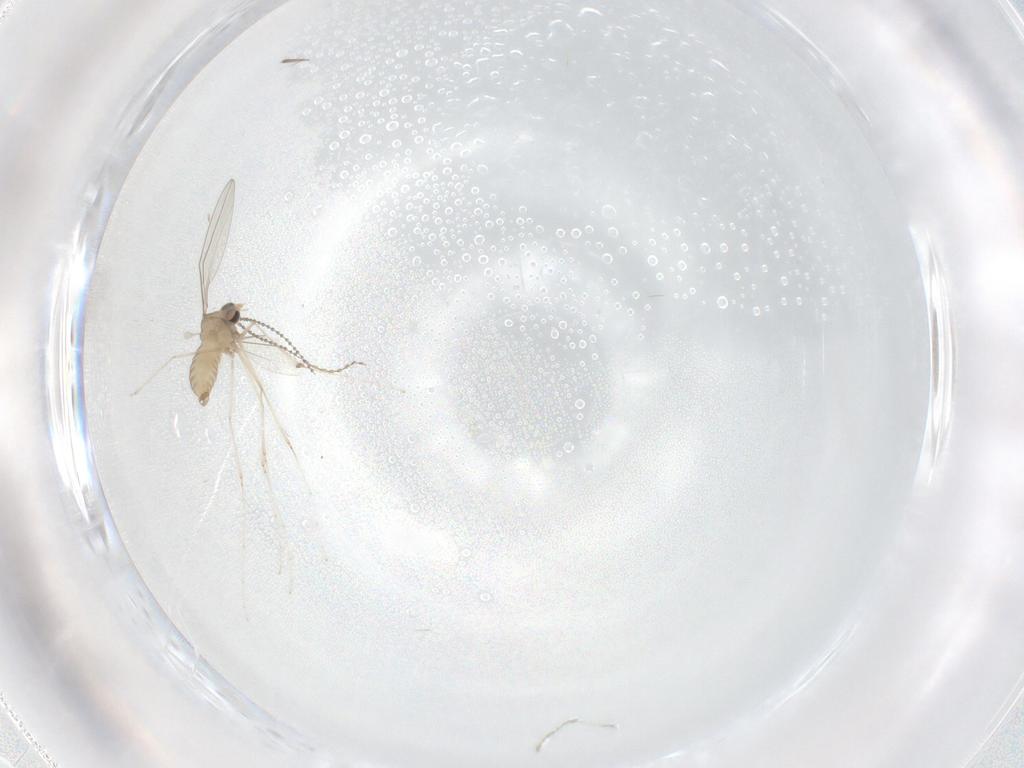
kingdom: Animalia
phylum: Arthropoda
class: Insecta
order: Diptera
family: Cecidomyiidae
